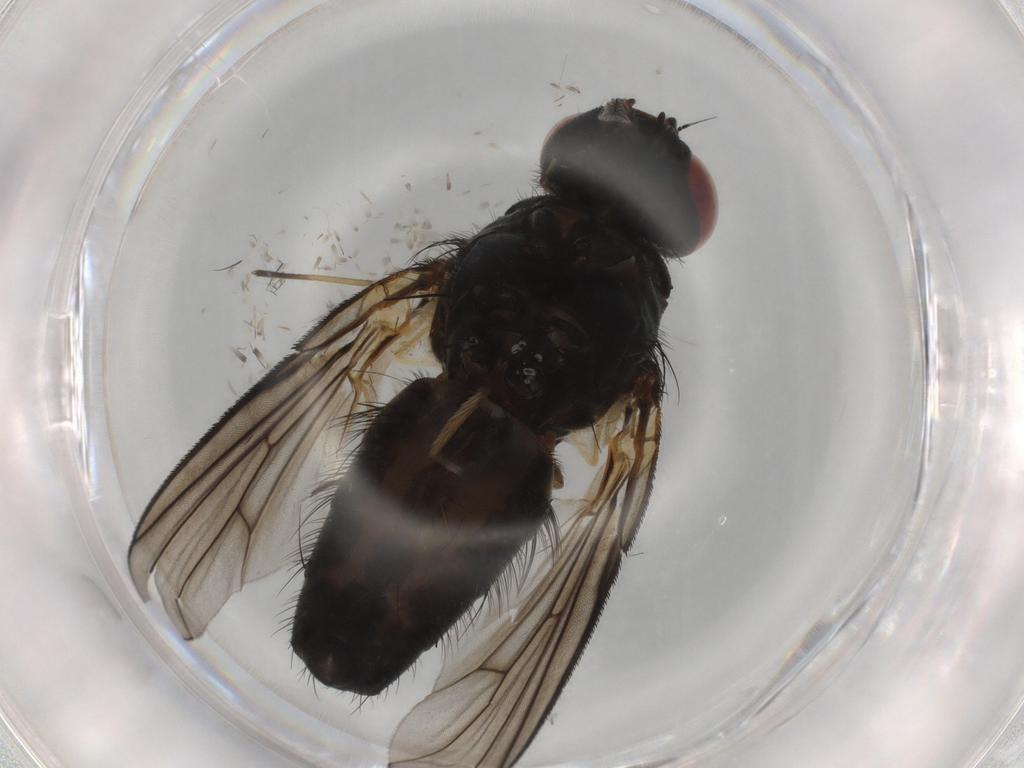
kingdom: Animalia
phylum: Arthropoda
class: Insecta
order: Diptera
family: Muscidae
